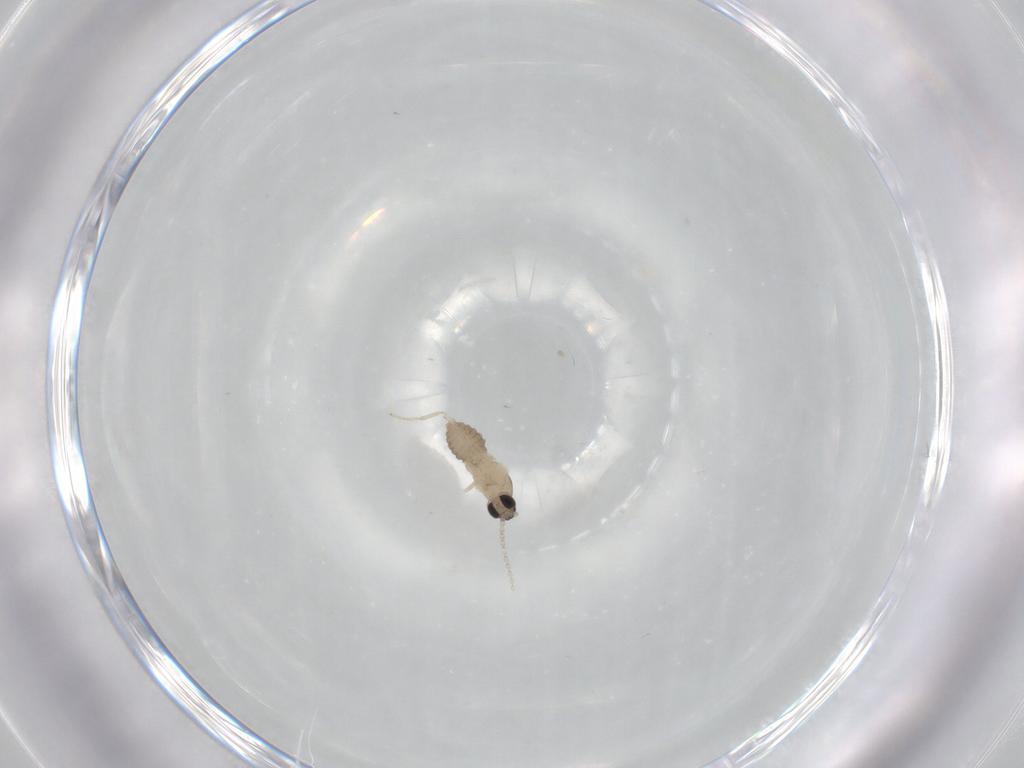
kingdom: Animalia
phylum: Arthropoda
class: Insecta
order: Diptera
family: Cecidomyiidae
